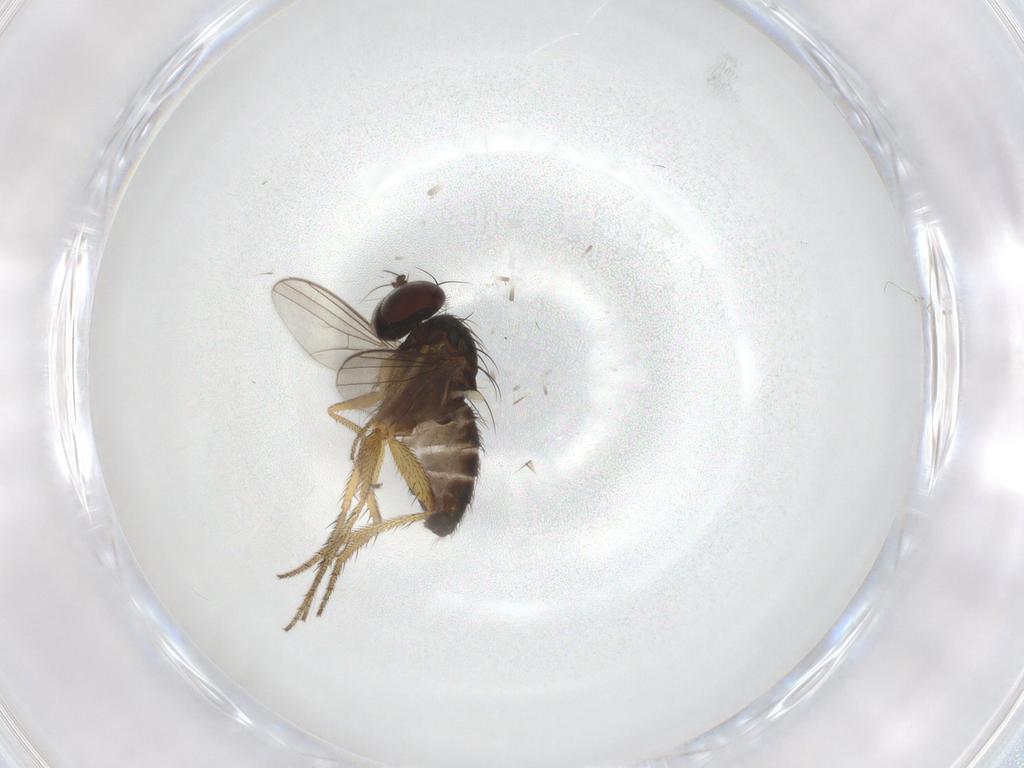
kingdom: Animalia
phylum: Arthropoda
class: Insecta
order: Diptera
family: Sciaridae
